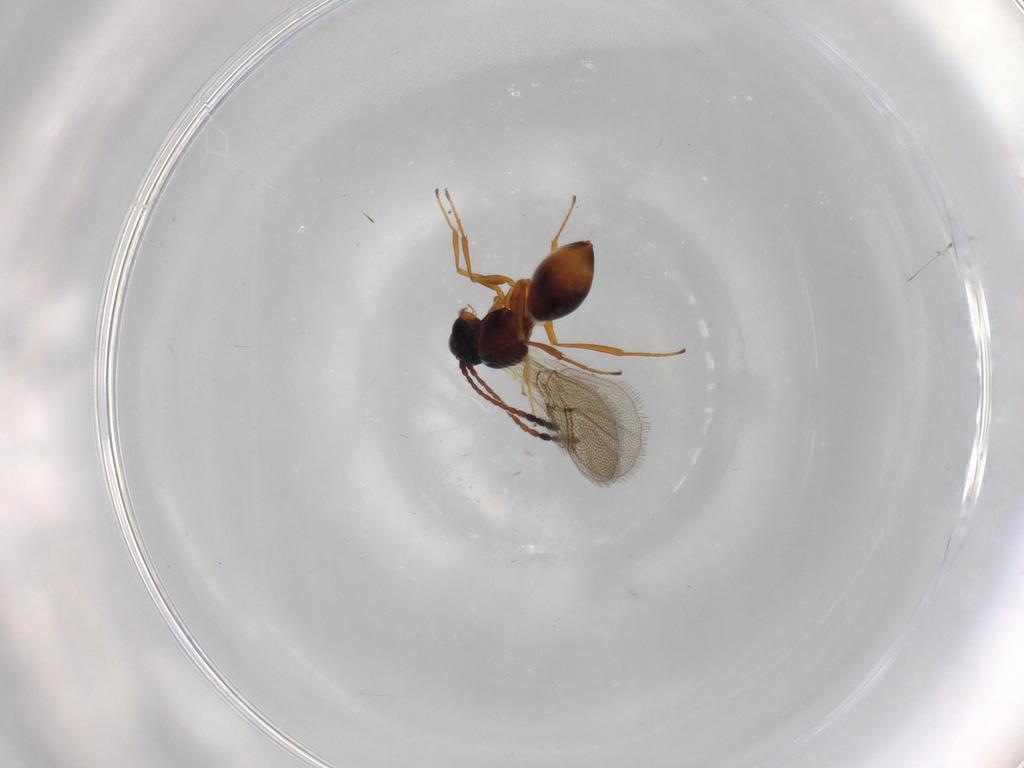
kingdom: Animalia
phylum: Arthropoda
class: Insecta
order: Hymenoptera
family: Figitidae
